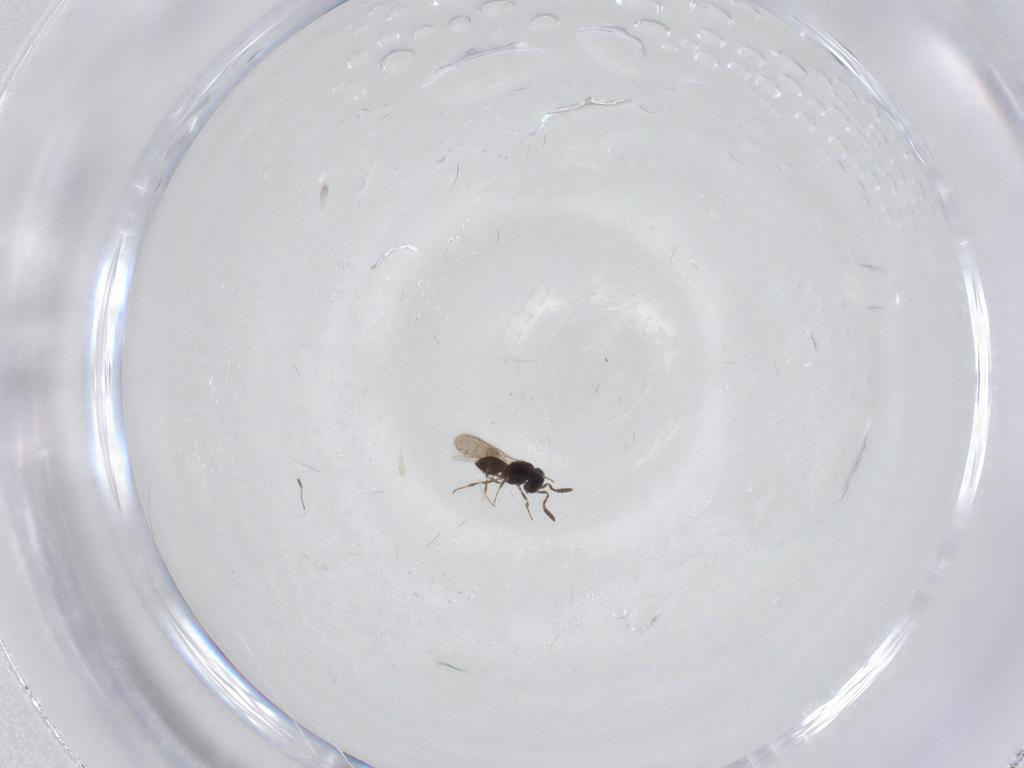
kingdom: Animalia
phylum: Arthropoda
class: Insecta
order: Hymenoptera
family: Scelionidae
